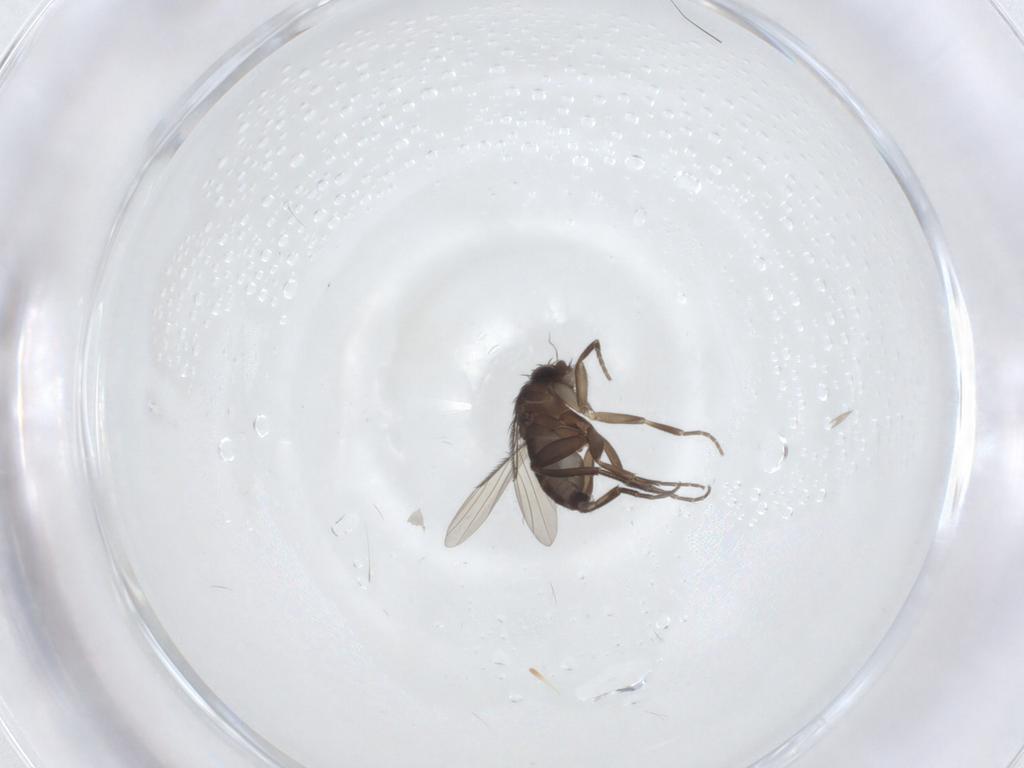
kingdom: Animalia
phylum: Arthropoda
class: Insecta
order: Diptera
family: Phoridae
